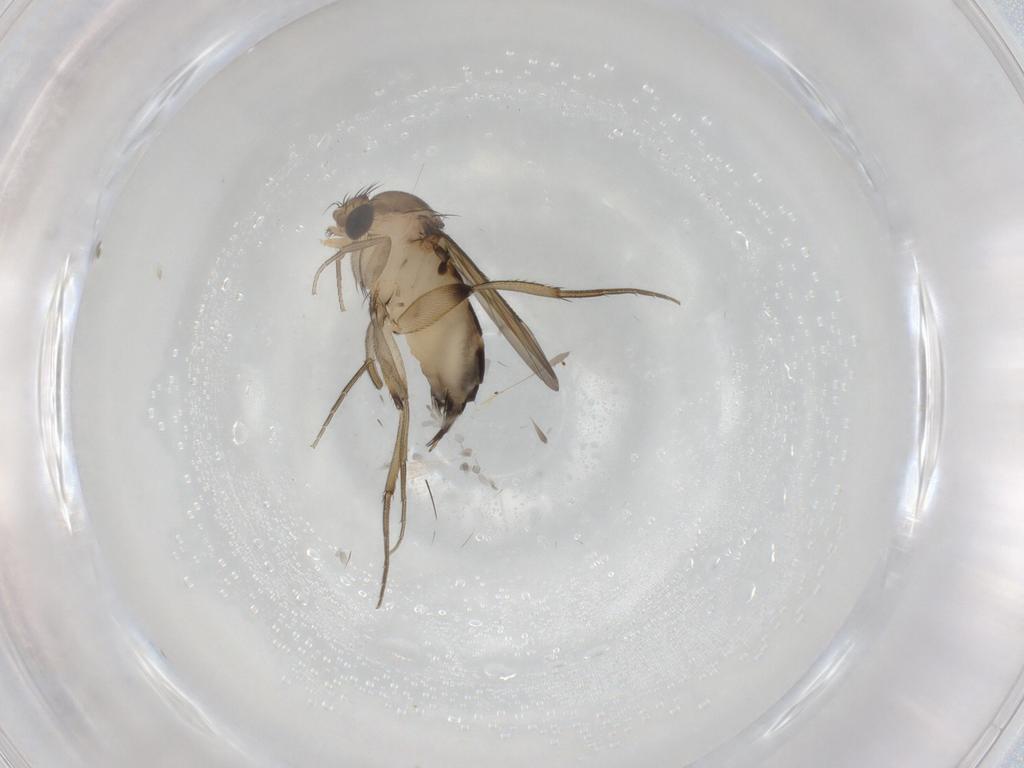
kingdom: Animalia
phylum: Arthropoda
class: Insecta
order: Diptera
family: Phoridae
